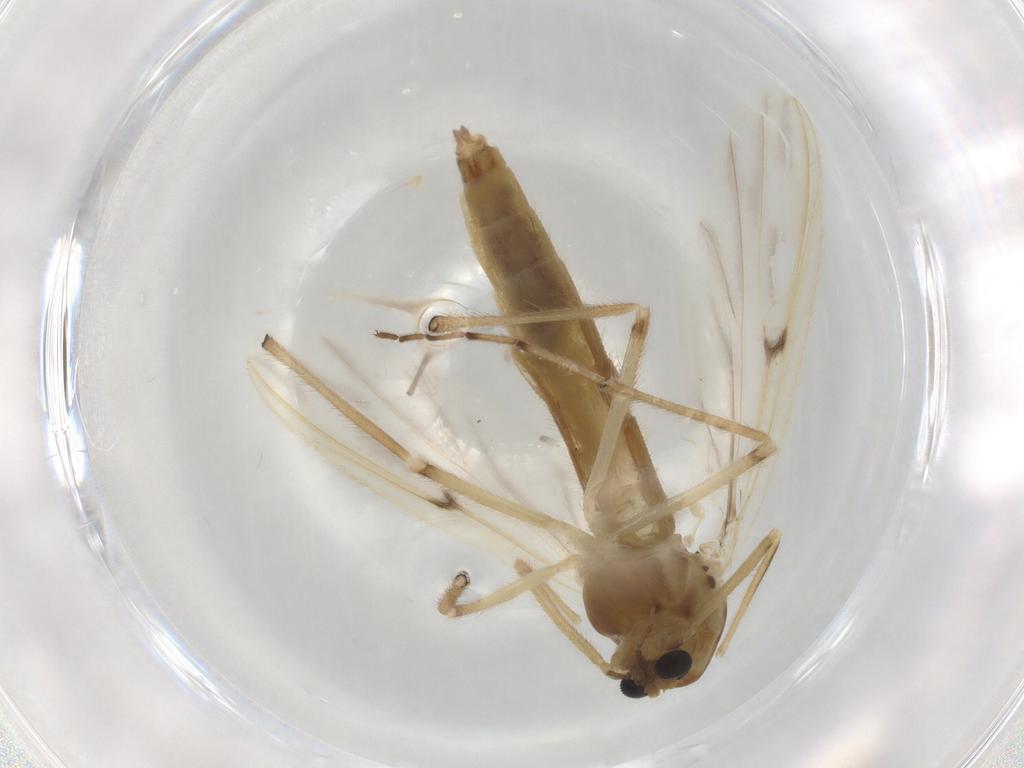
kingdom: Animalia
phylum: Arthropoda
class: Insecta
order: Diptera
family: Chironomidae
